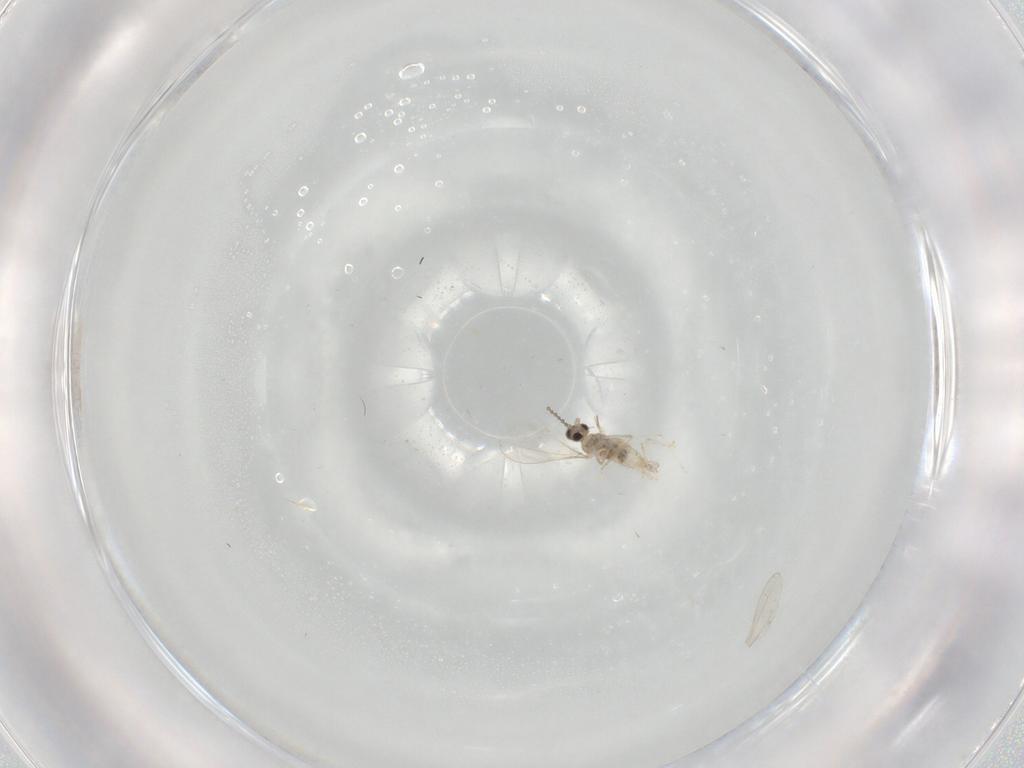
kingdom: Animalia
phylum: Arthropoda
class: Insecta
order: Diptera
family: Cecidomyiidae
